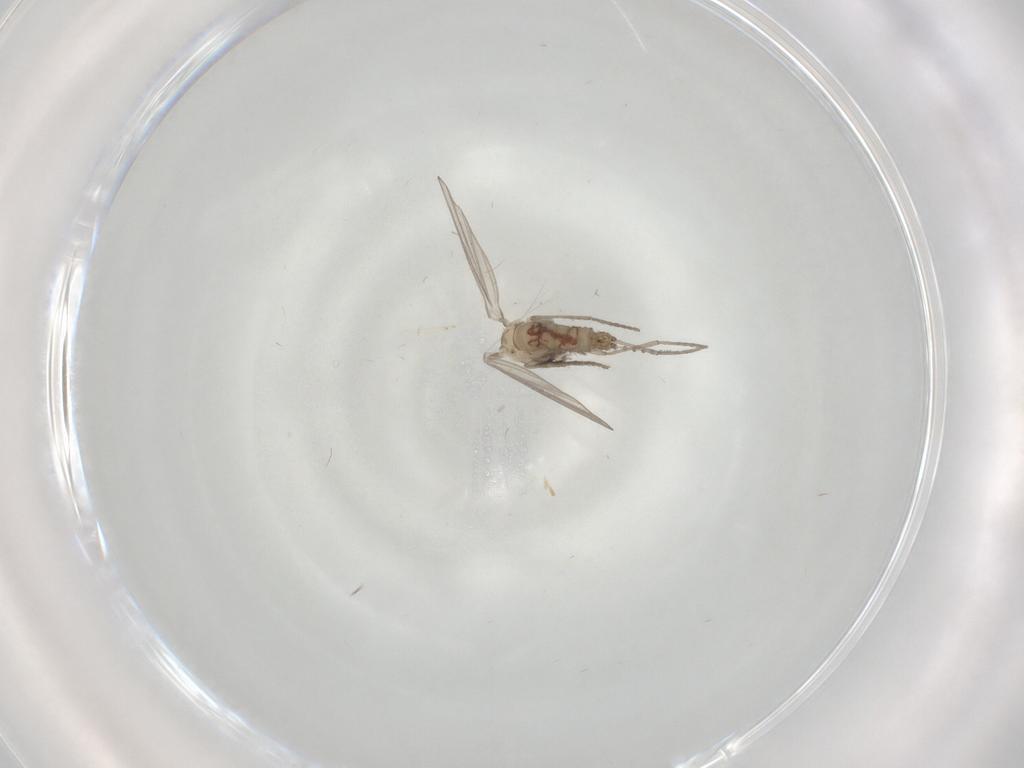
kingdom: Animalia
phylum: Arthropoda
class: Insecta
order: Diptera
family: Psychodidae
